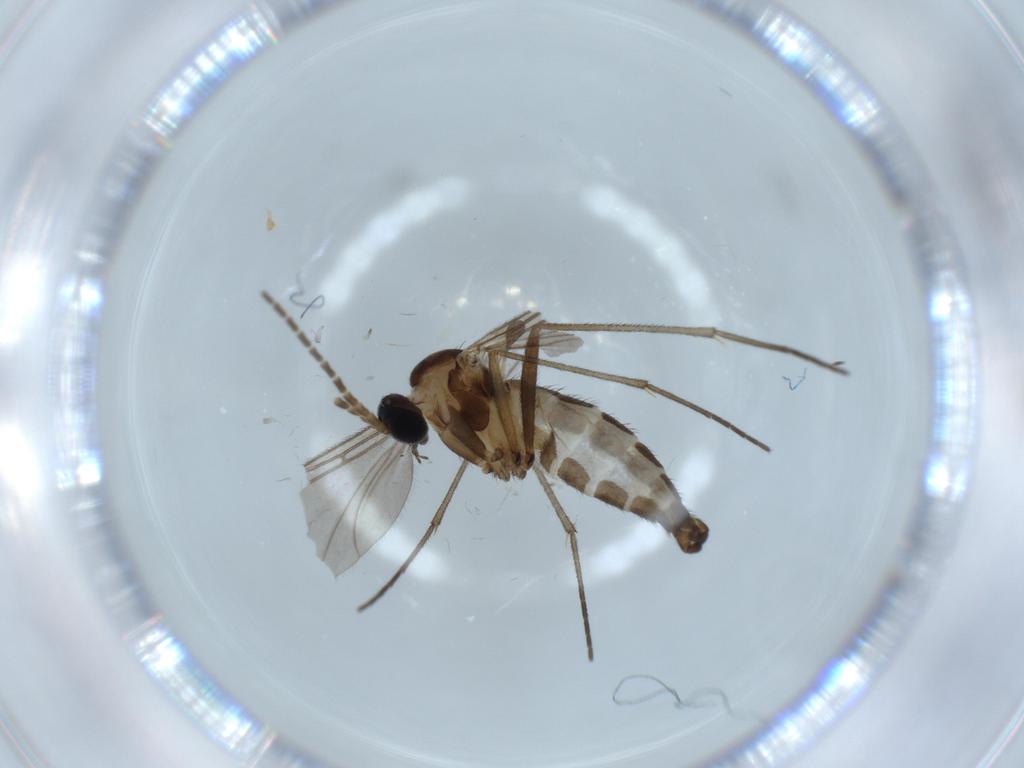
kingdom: Animalia
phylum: Arthropoda
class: Insecta
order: Diptera
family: Sciaridae
